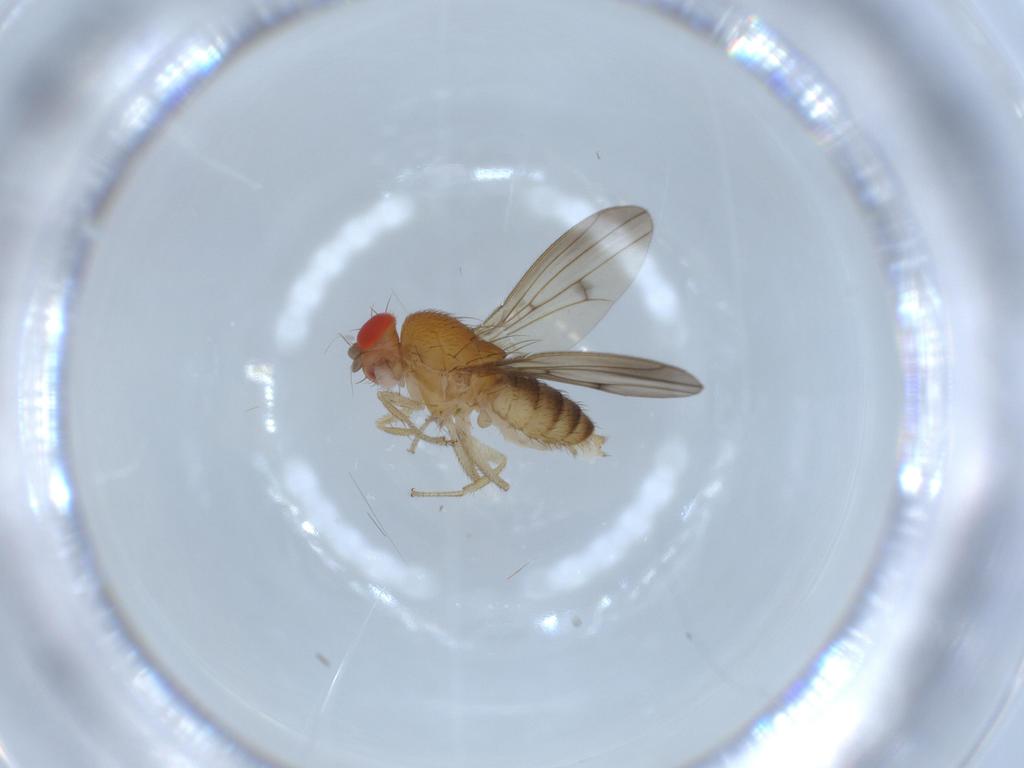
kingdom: Animalia
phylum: Arthropoda
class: Insecta
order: Diptera
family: Drosophilidae
